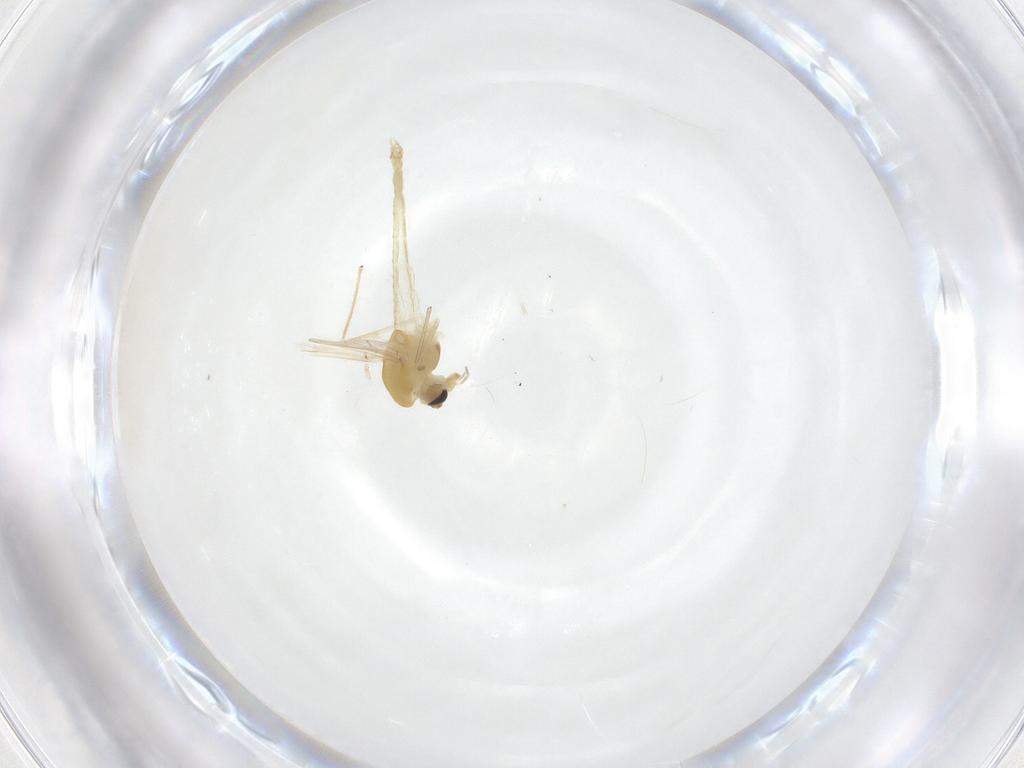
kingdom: Animalia
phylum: Arthropoda
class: Insecta
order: Diptera
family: Chironomidae
